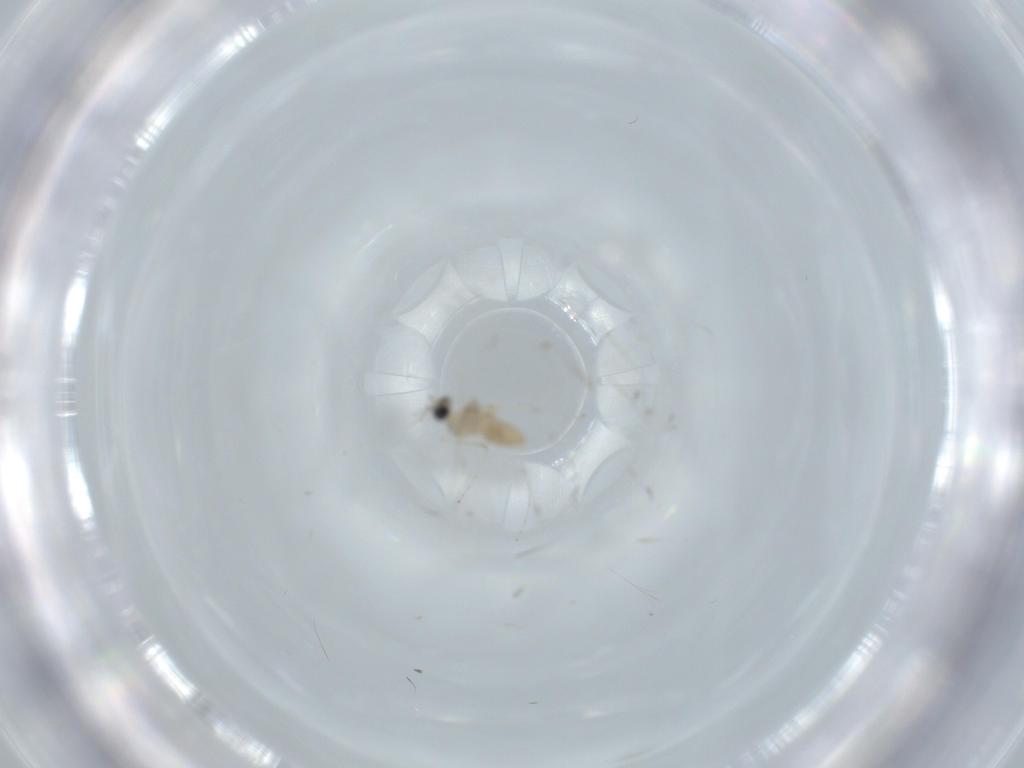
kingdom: Animalia
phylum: Arthropoda
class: Insecta
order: Diptera
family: Cecidomyiidae
